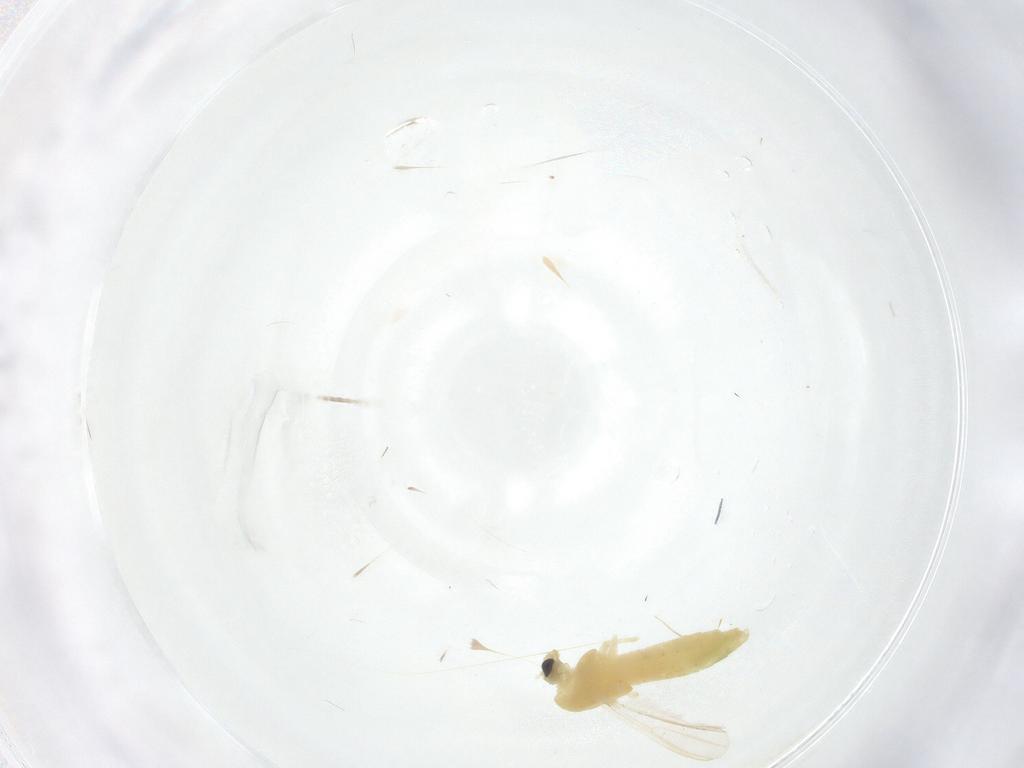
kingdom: Animalia
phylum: Arthropoda
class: Insecta
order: Diptera
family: Chironomidae
